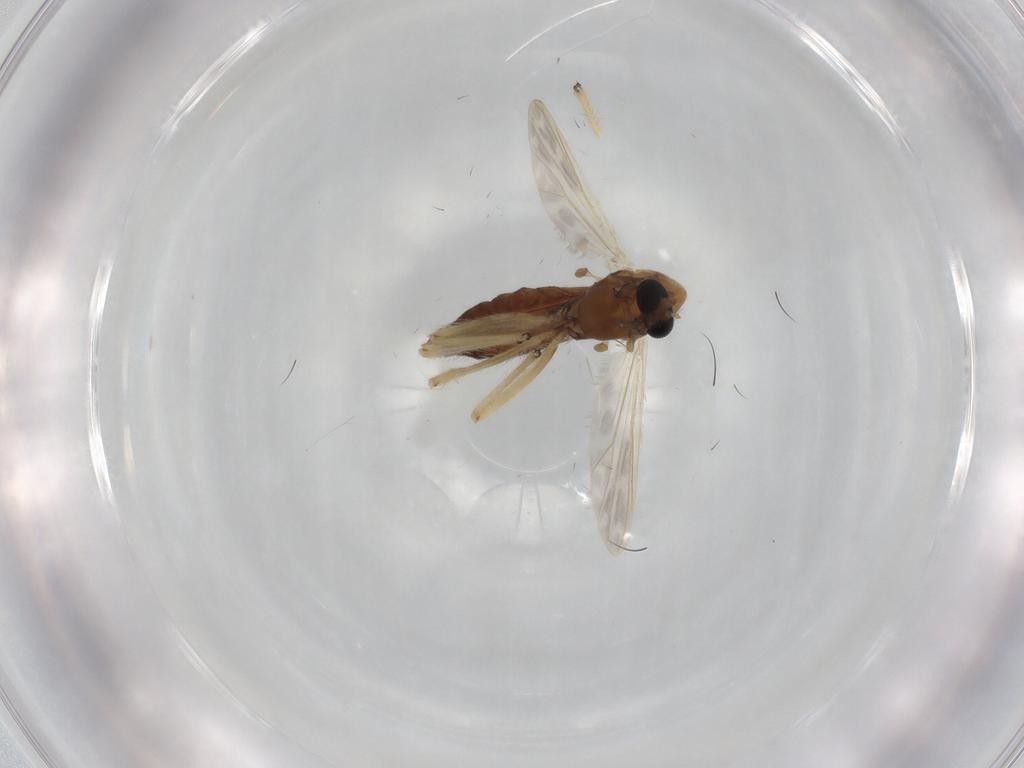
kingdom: Animalia
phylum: Arthropoda
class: Insecta
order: Diptera
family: Chironomidae
